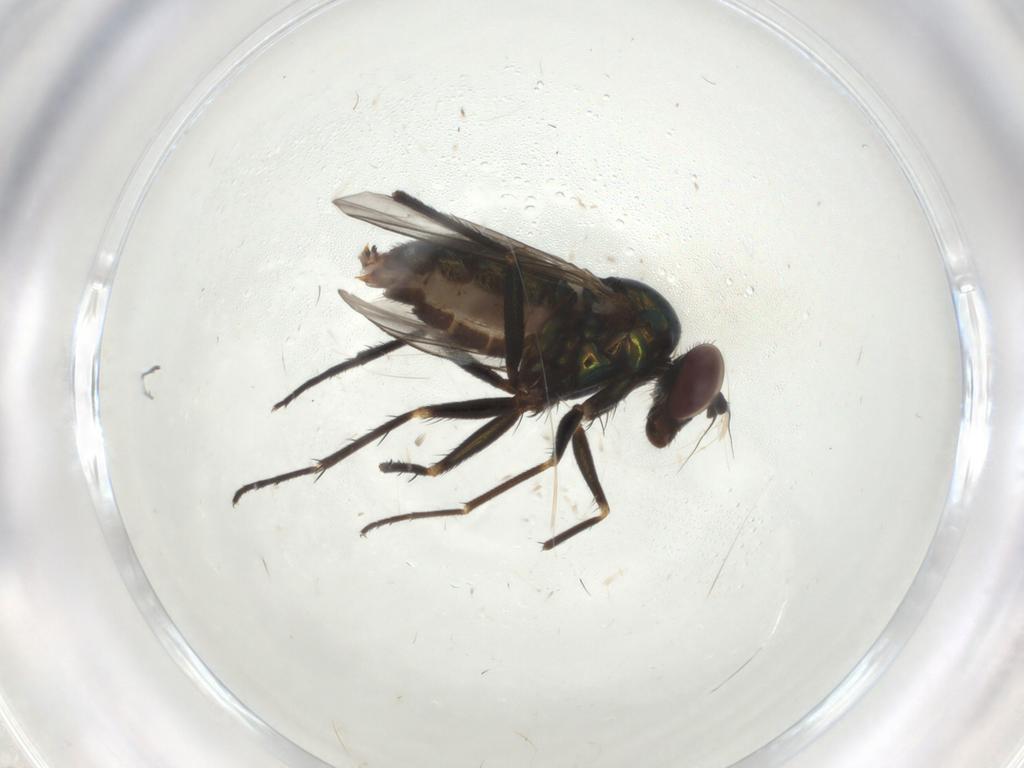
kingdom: Animalia
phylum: Arthropoda
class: Insecta
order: Diptera
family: Dolichopodidae
